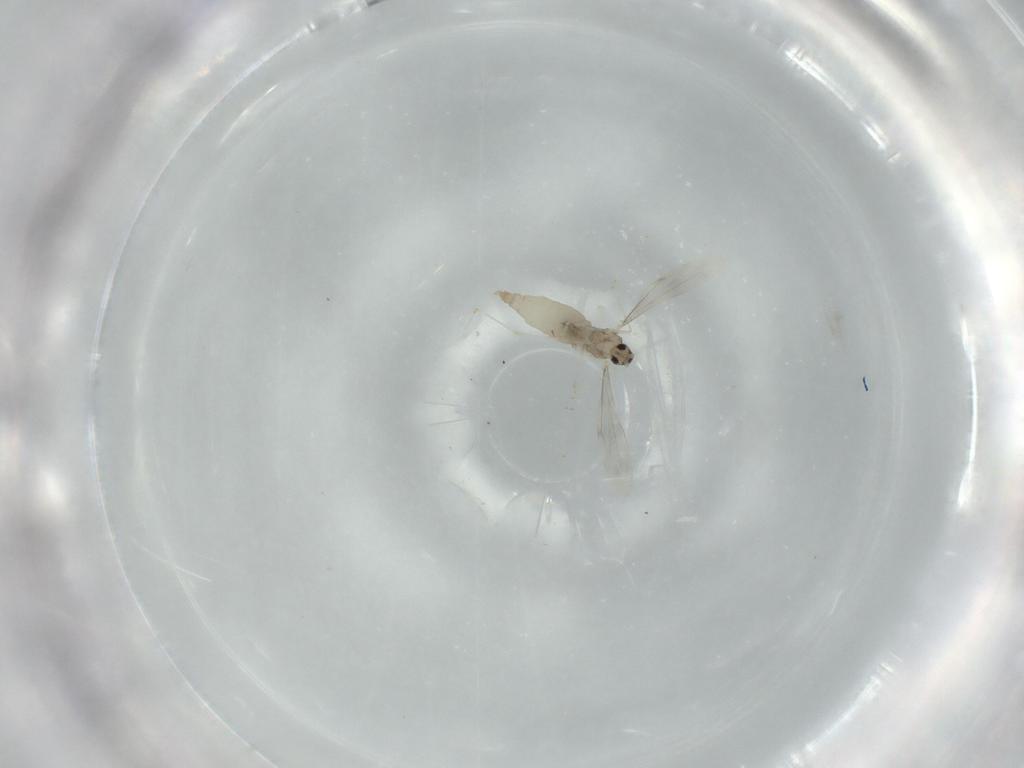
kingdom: Animalia
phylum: Arthropoda
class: Insecta
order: Diptera
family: Cecidomyiidae
